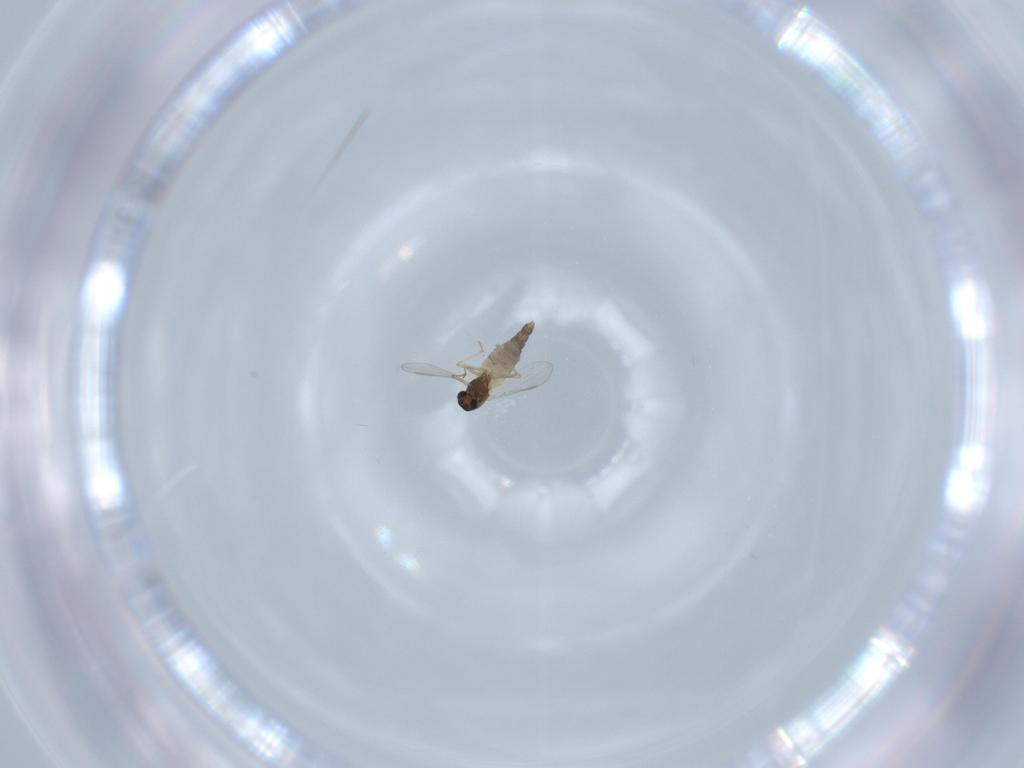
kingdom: Animalia
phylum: Arthropoda
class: Insecta
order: Diptera
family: Chironomidae
